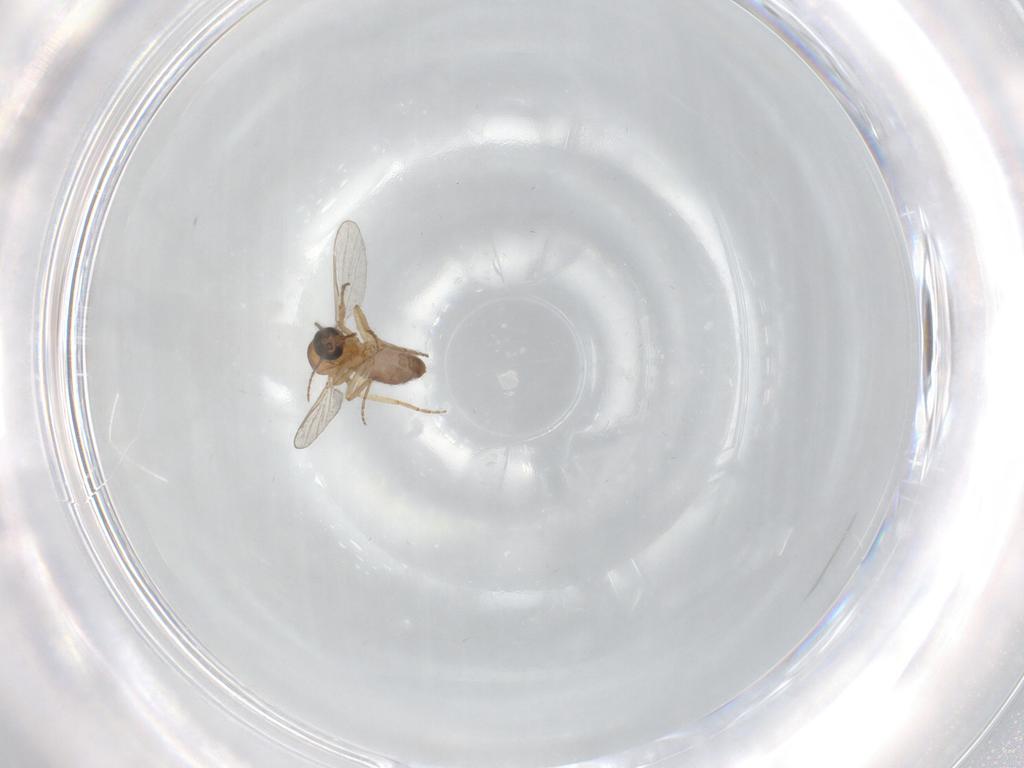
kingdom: Animalia
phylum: Arthropoda
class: Insecta
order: Diptera
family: Ceratopogonidae
